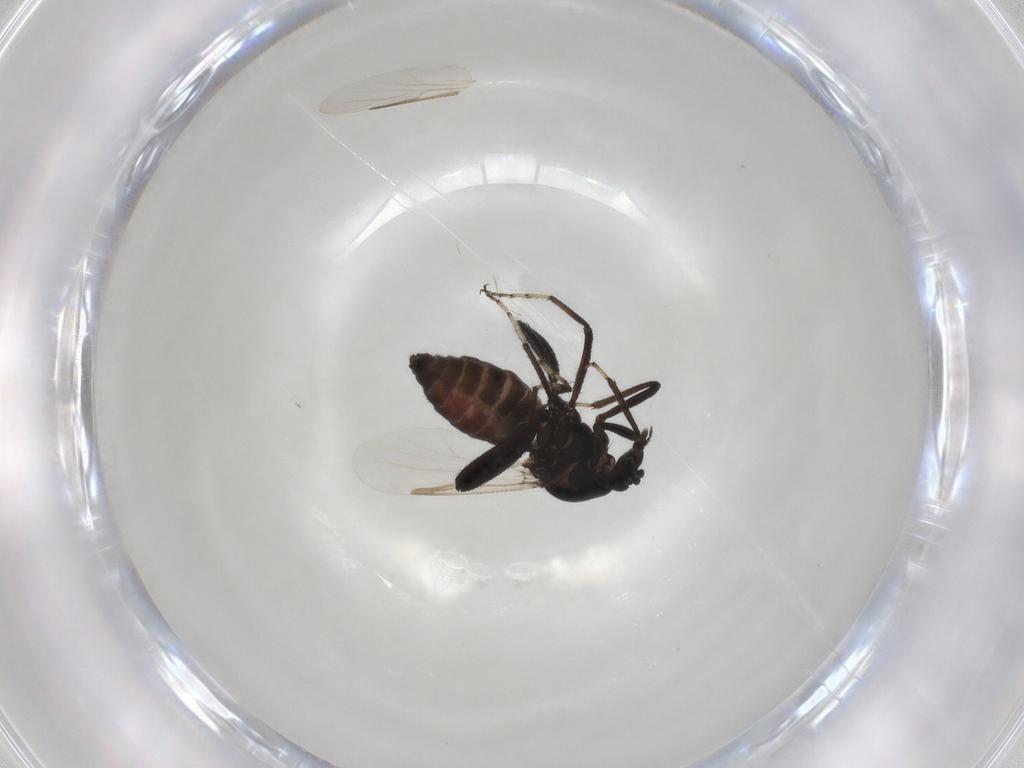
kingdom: Animalia
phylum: Arthropoda
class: Insecta
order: Diptera
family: Ceratopogonidae
